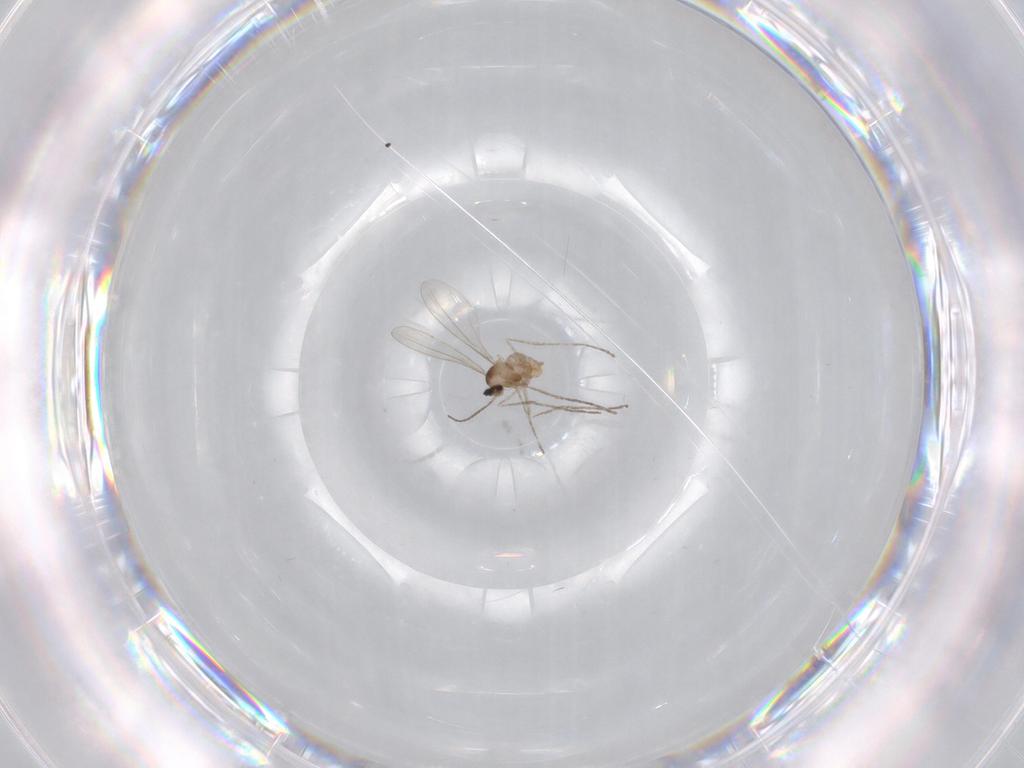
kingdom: Animalia
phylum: Arthropoda
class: Insecta
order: Diptera
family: Cecidomyiidae
